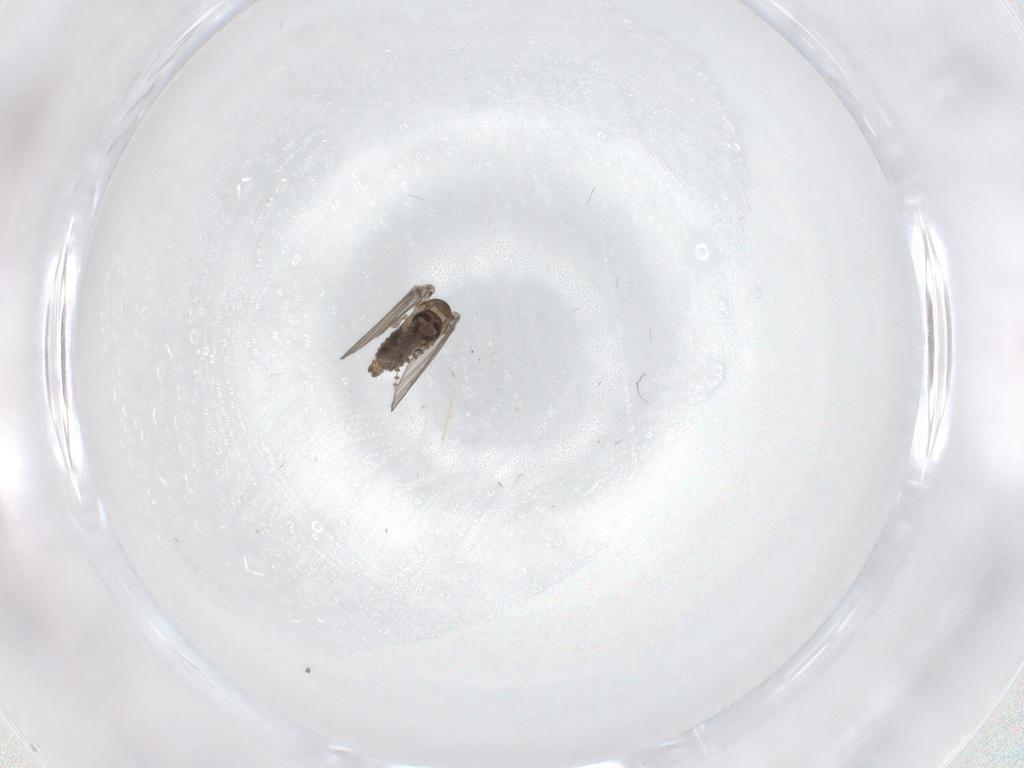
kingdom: Animalia
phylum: Arthropoda
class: Insecta
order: Diptera
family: Psychodidae
